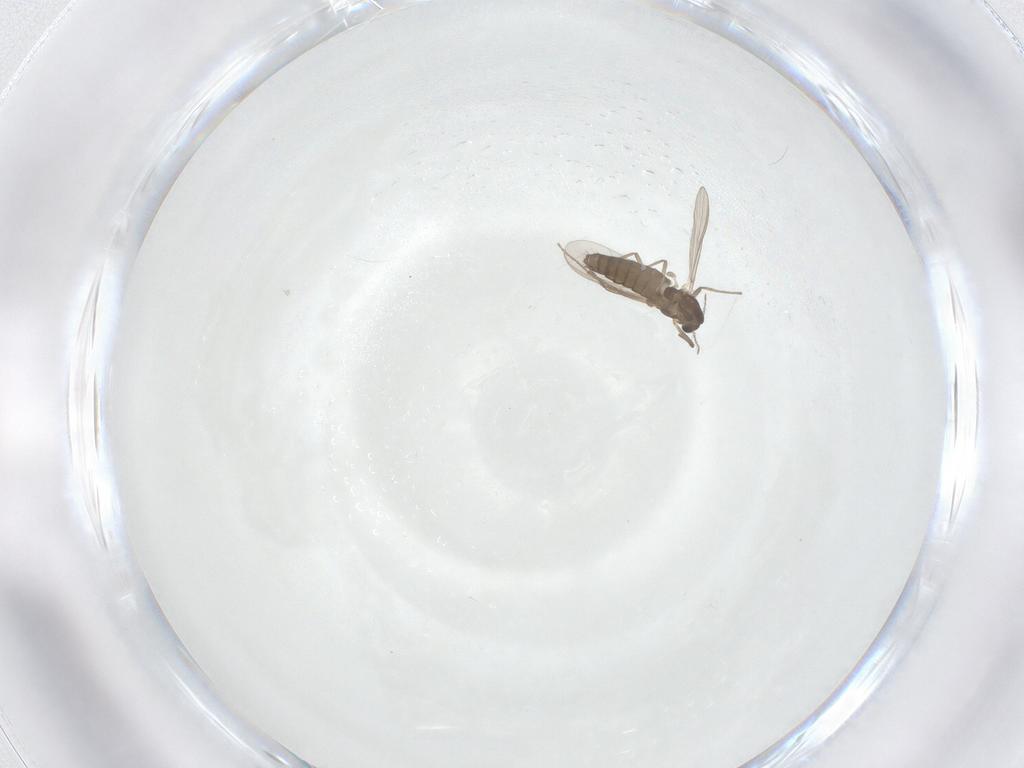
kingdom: Animalia
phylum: Arthropoda
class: Insecta
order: Diptera
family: Chironomidae
